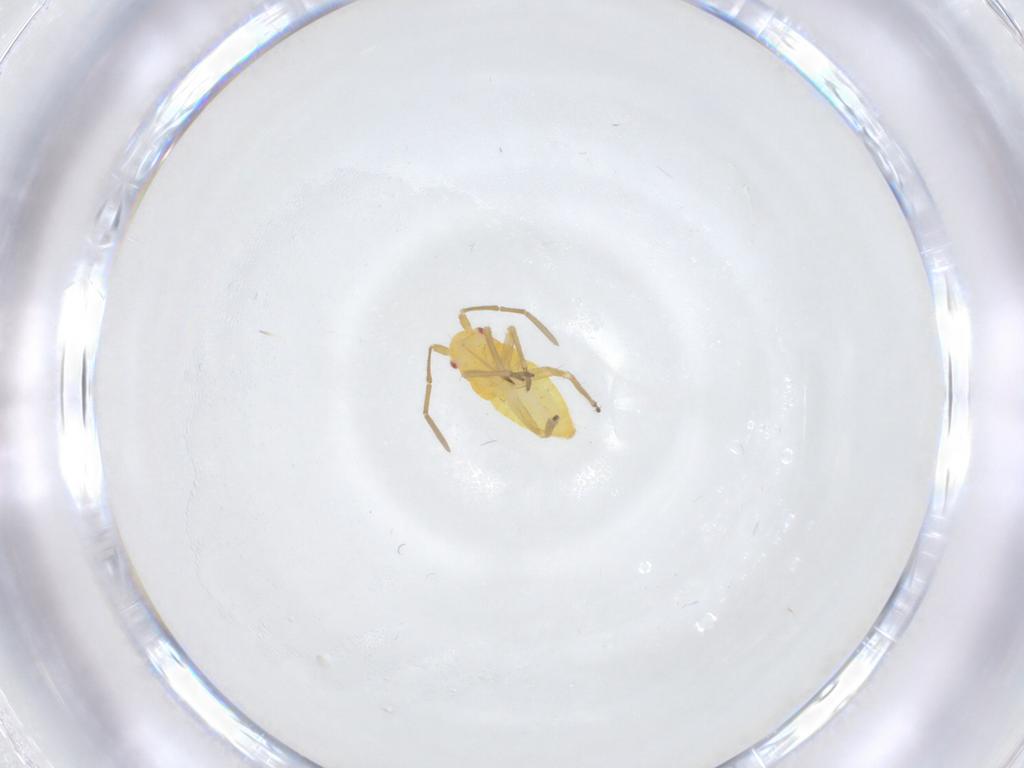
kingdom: Animalia
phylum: Arthropoda
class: Insecta
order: Hemiptera
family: Miridae
